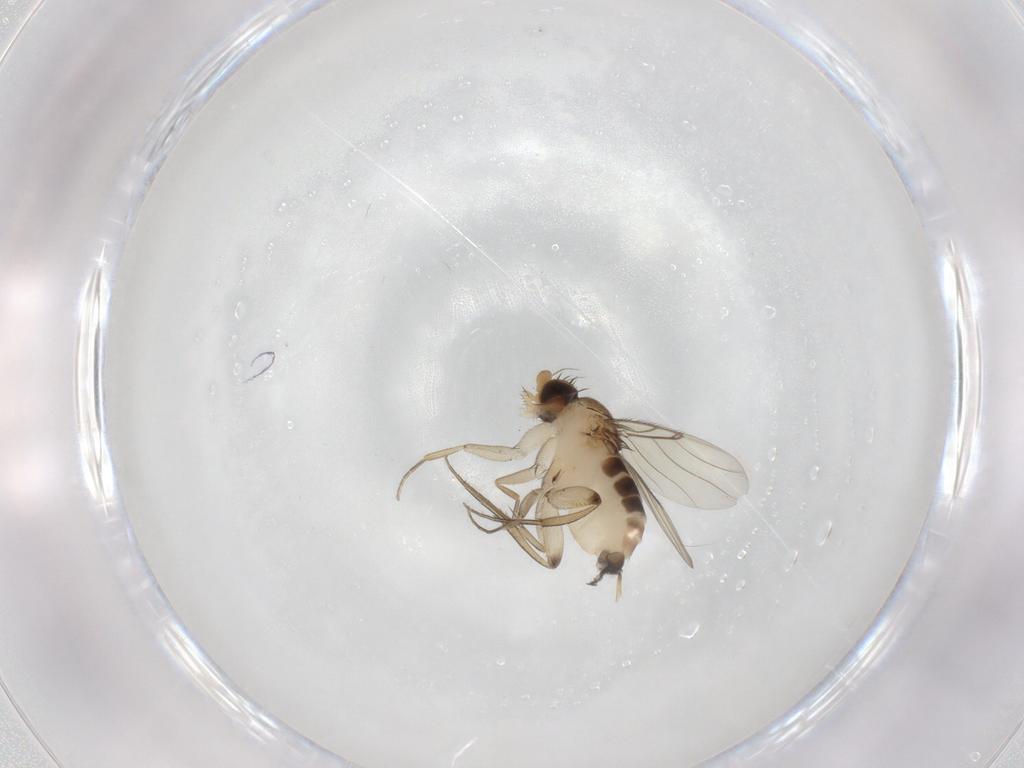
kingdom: Animalia
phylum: Arthropoda
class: Insecta
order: Diptera
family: Phoridae
